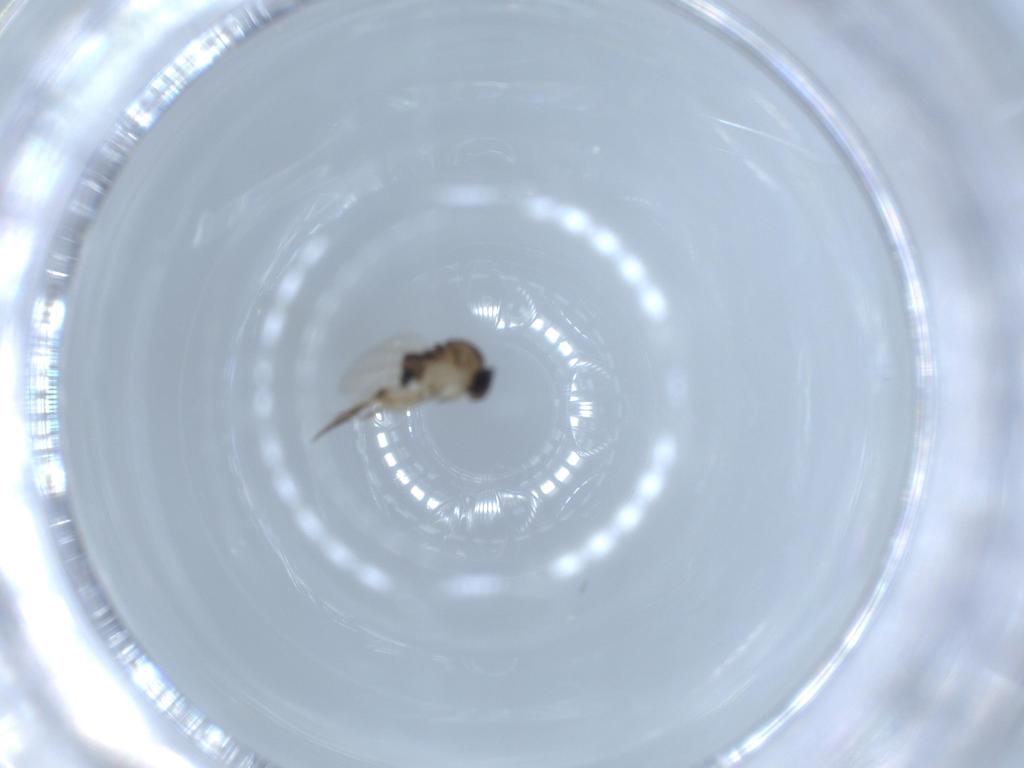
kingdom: Animalia
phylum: Arthropoda
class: Insecta
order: Diptera
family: Phoridae
